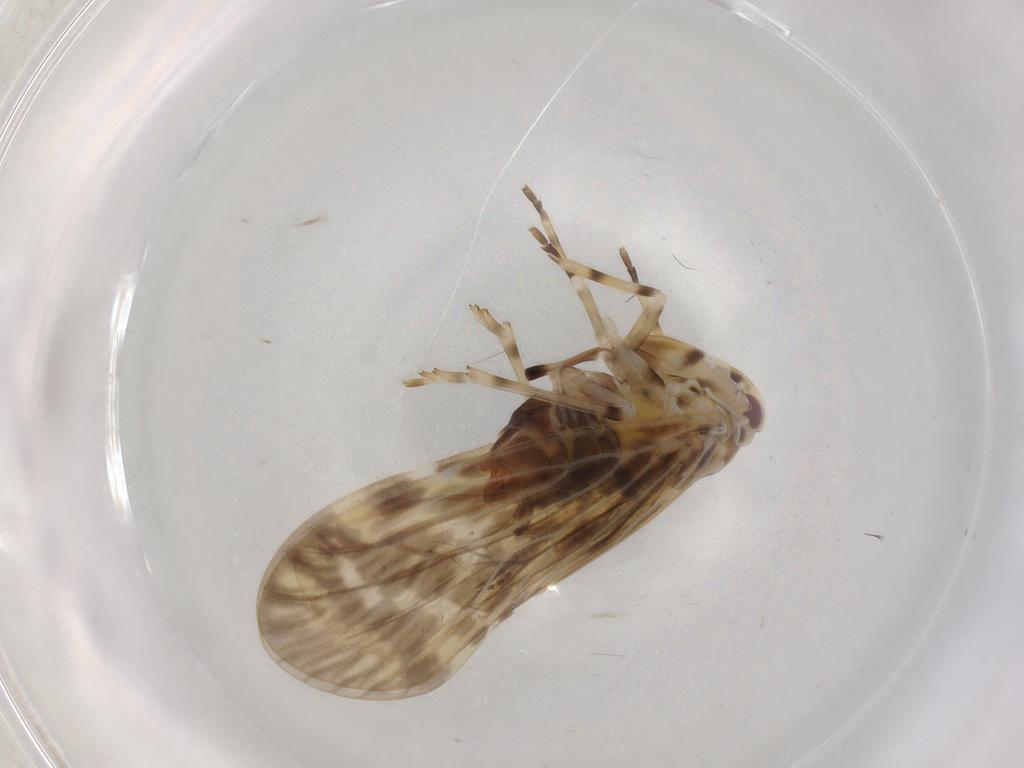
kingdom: Animalia
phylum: Arthropoda
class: Insecta
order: Hemiptera
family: Derbidae
